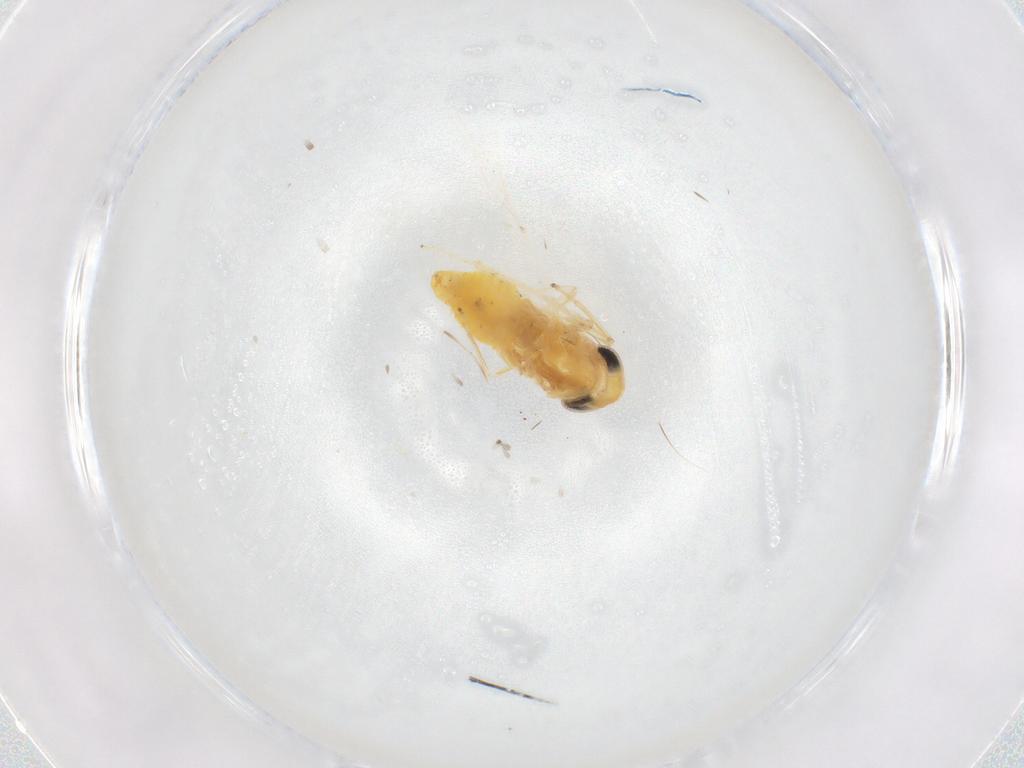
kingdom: Animalia
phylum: Arthropoda
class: Insecta
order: Hemiptera
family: Cicadellidae
